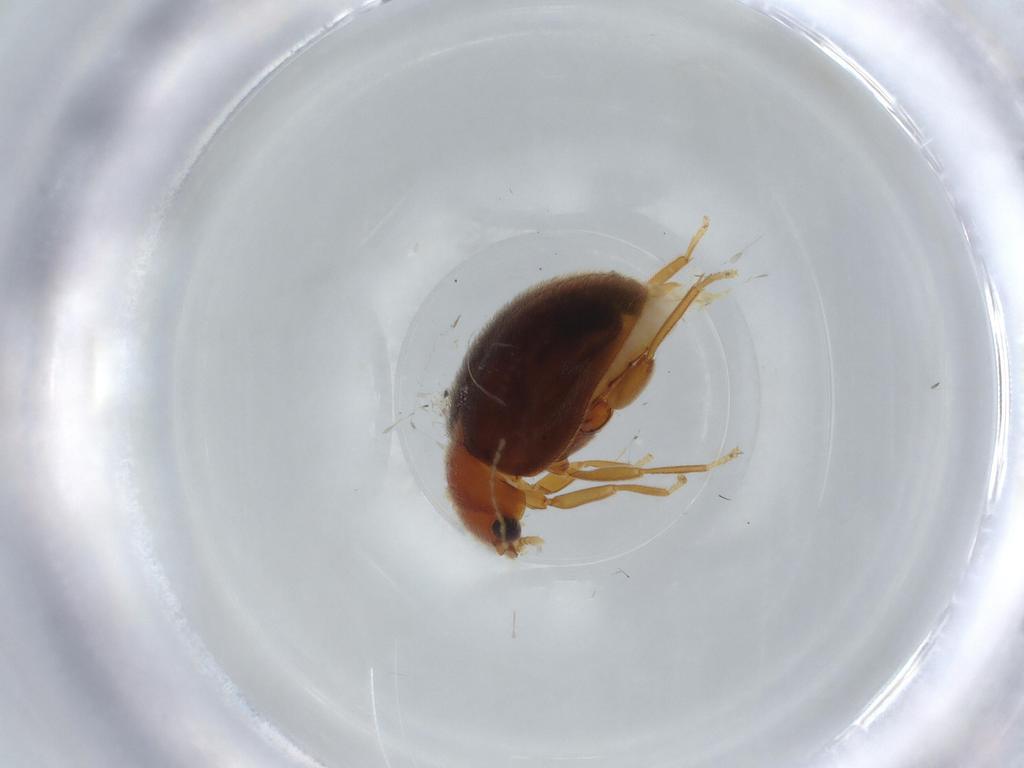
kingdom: Animalia
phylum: Arthropoda
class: Insecta
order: Coleoptera
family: Scirtidae
